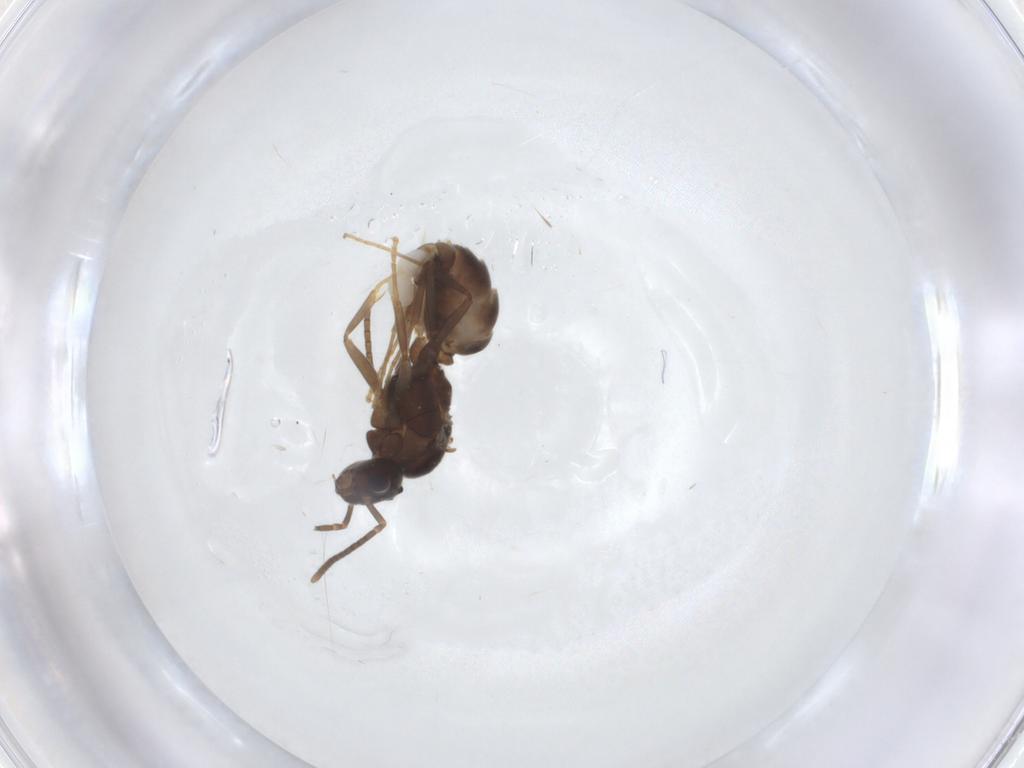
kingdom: Animalia
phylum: Arthropoda
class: Insecta
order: Hymenoptera
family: Formicidae
